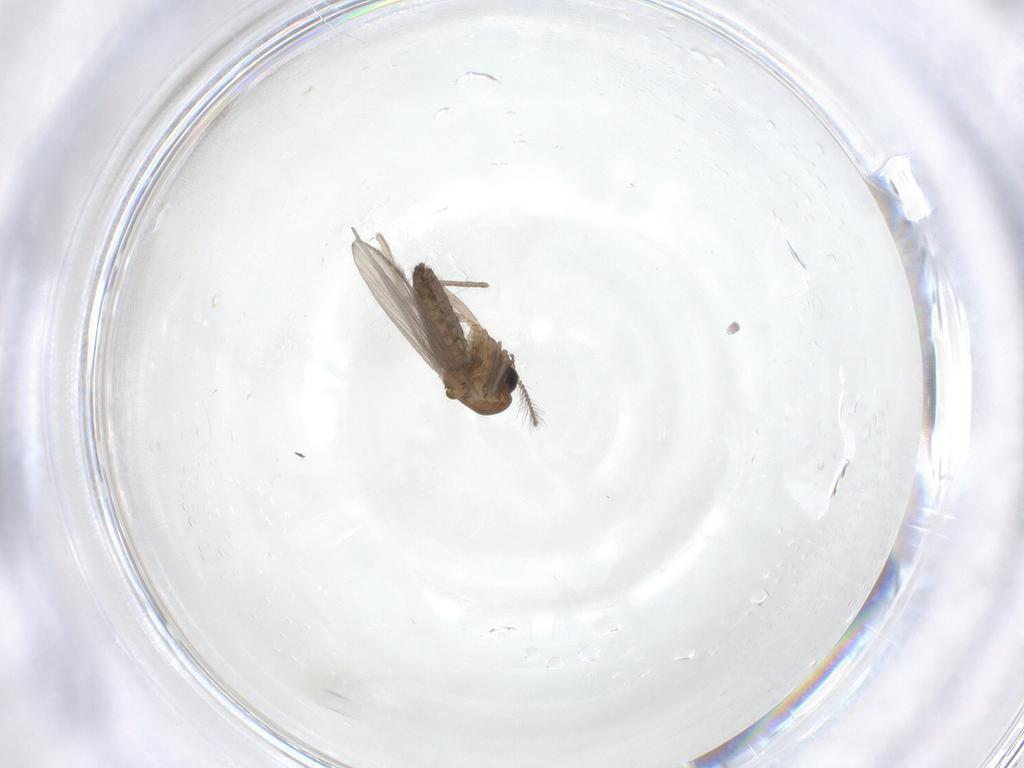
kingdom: Animalia
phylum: Arthropoda
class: Insecta
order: Diptera
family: Chironomidae
